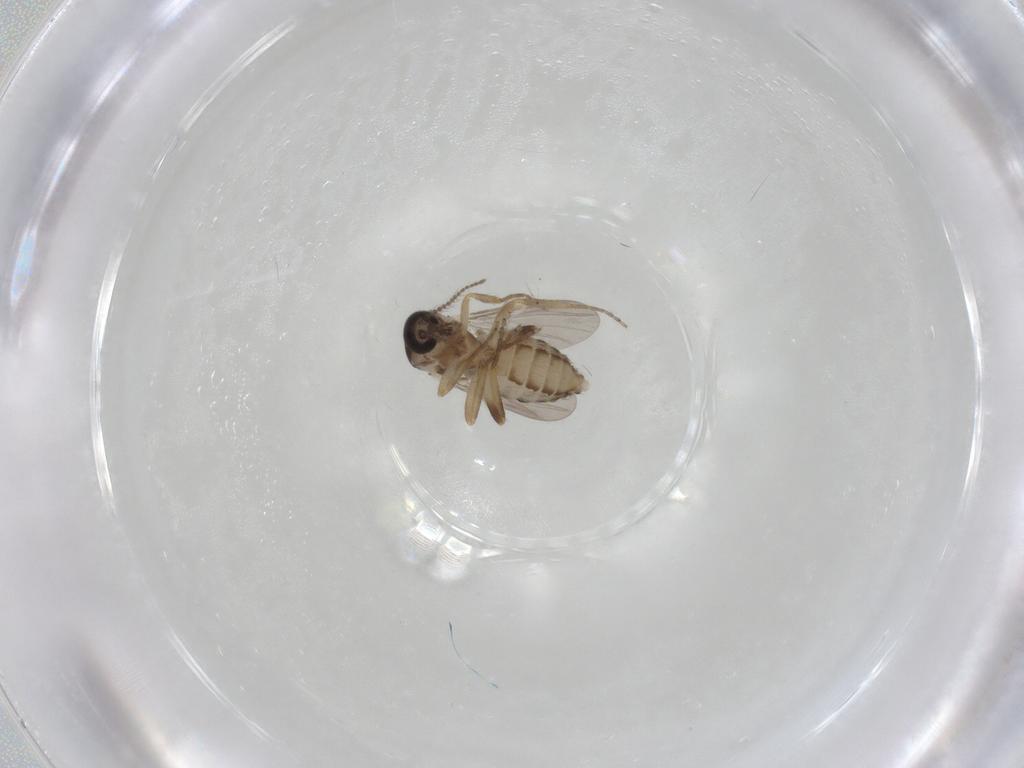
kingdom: Animalia
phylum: Arthropoda
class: Insecta
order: Diptera
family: Ceratopogonidae
